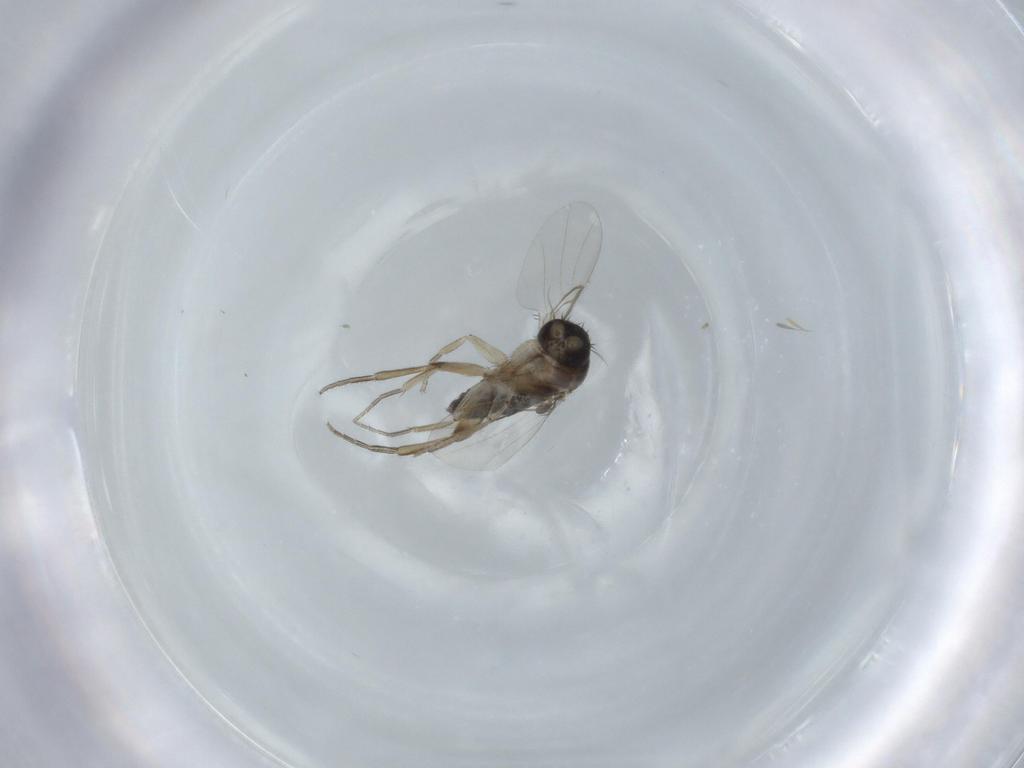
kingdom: Animalia
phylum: Arthropoda
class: Insecta
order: Diptera
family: Phoridae
